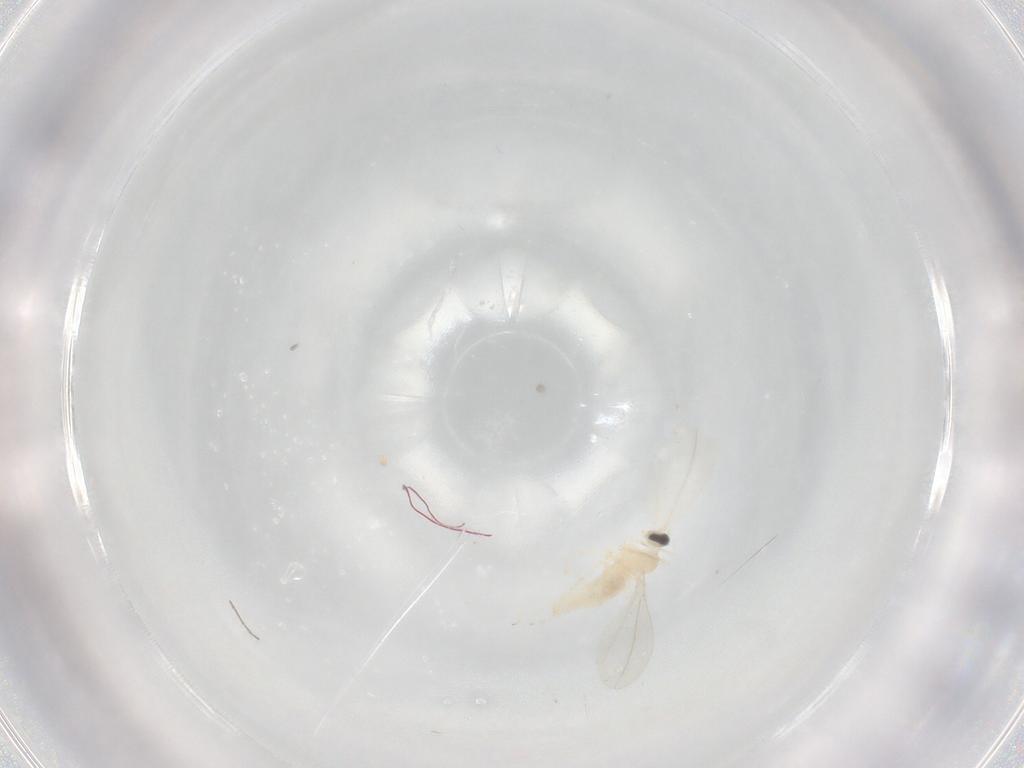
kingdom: Animalia
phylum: Arthropoda
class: Insecta
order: Diptera
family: Cecidomyiidae
